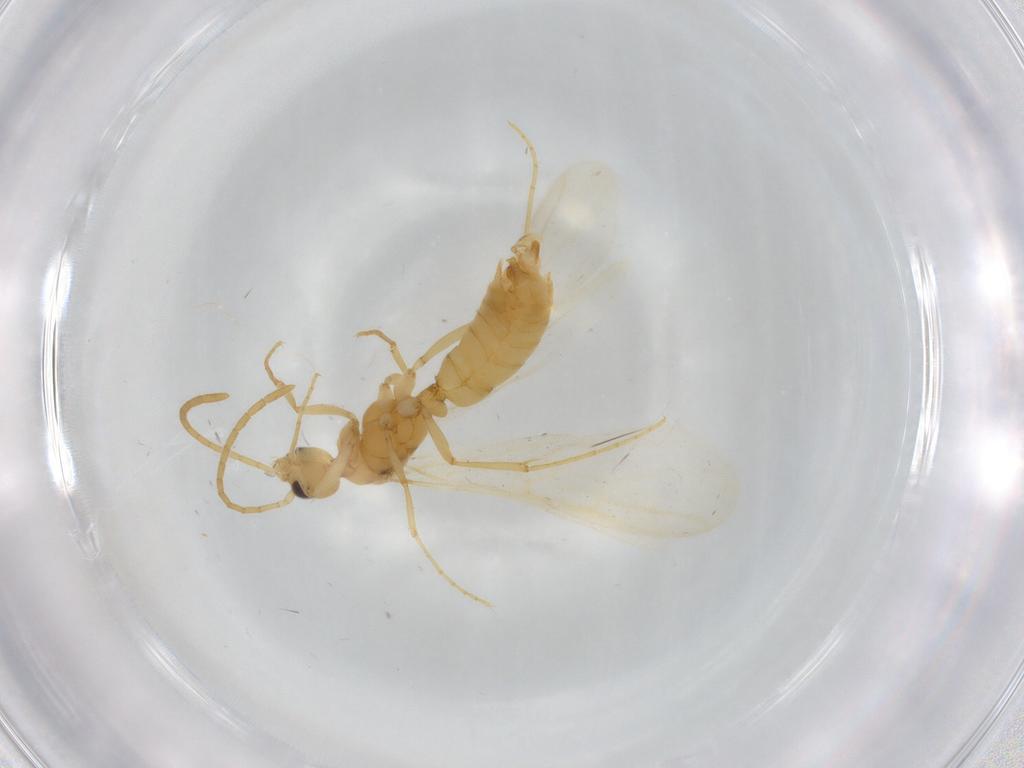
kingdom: Animalia
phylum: Arthropoda
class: Insecta
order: Hymenoptera
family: Formicidae
